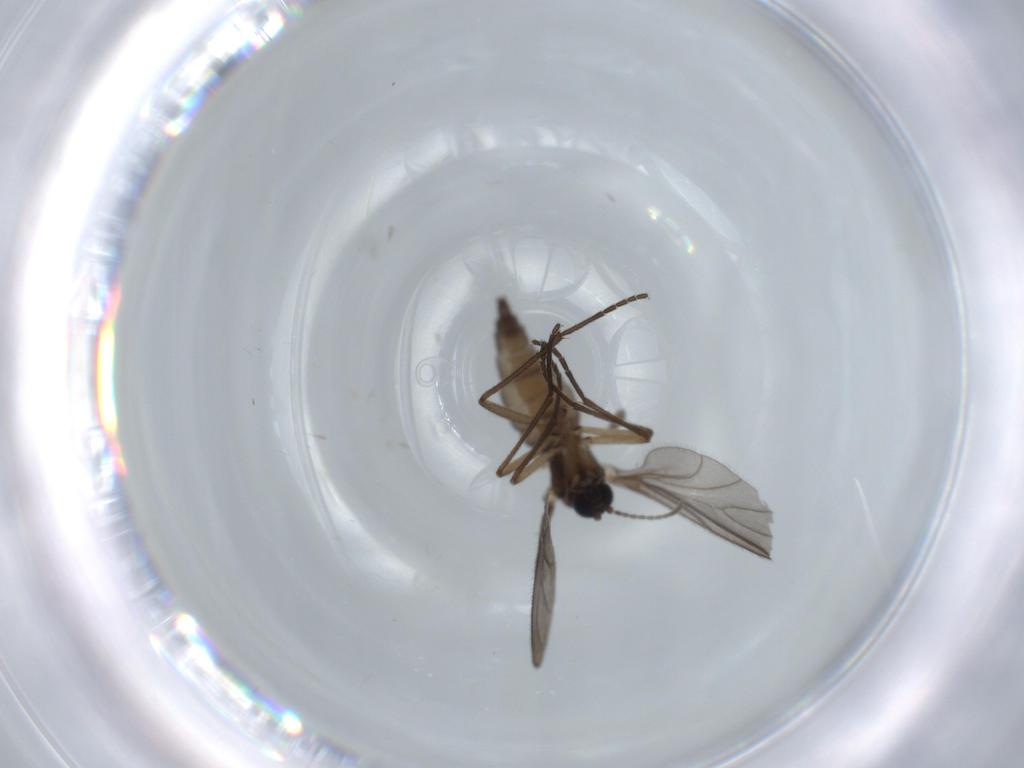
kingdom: Animalia
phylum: Arthropoda
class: Insecta
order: Diptera
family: Sciaridae
